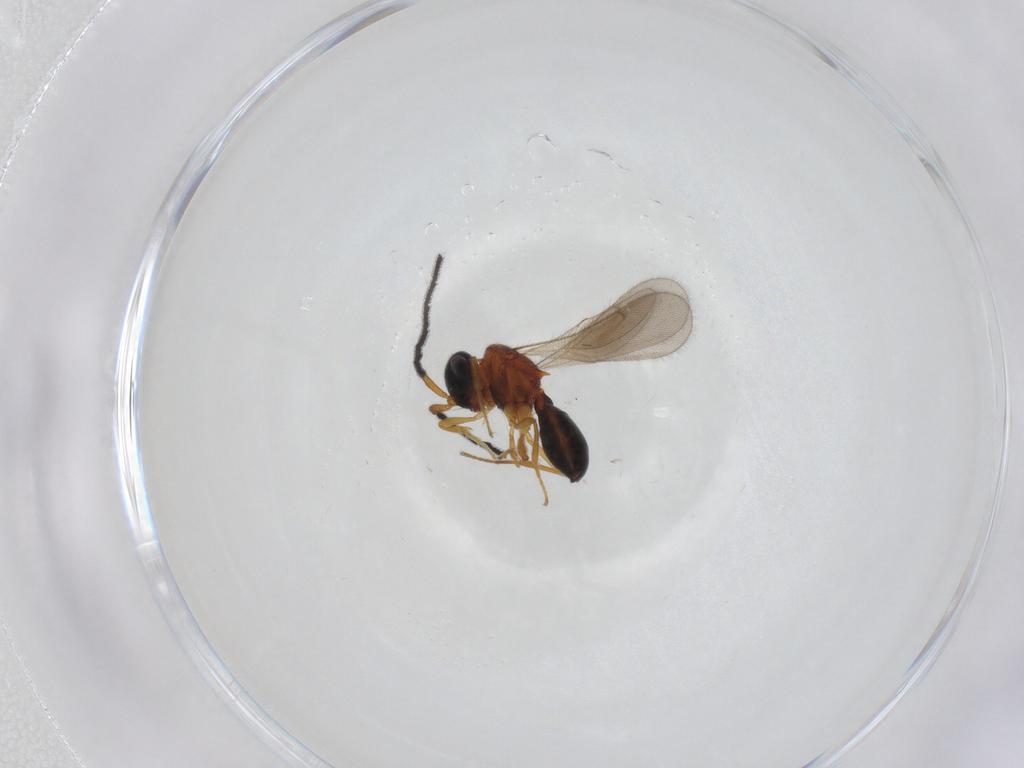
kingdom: Animalia
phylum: Arthropoda
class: Insecta
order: Hymenoptera
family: Scelionidae
